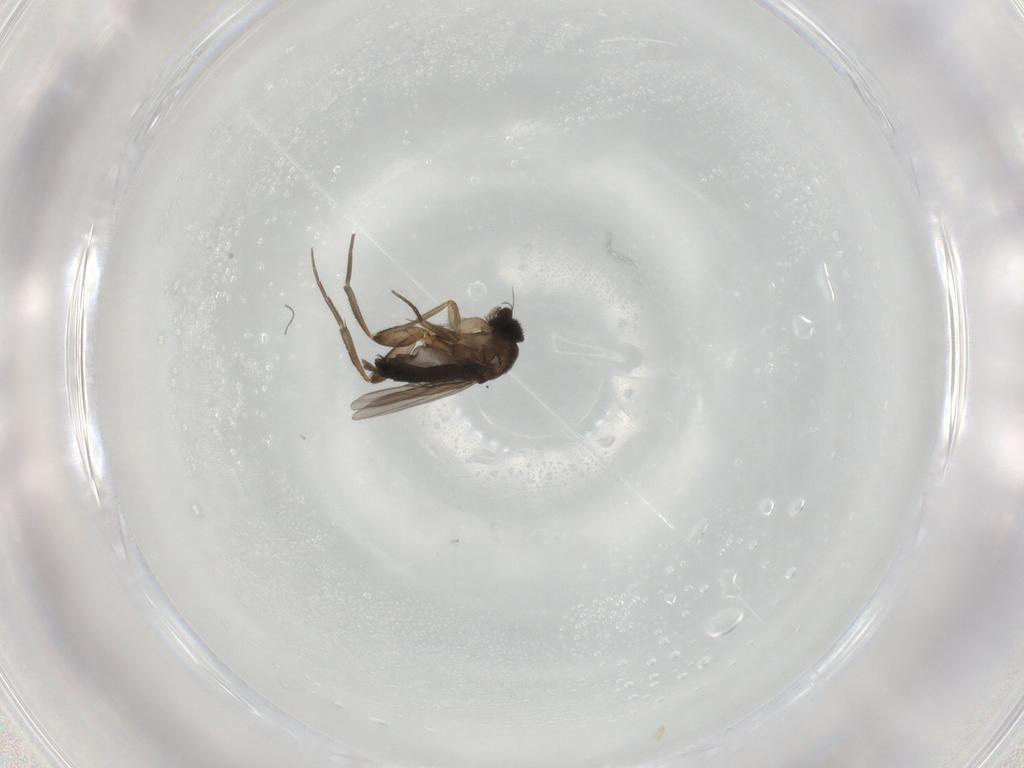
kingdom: Animalia
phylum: Arthropoda
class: Insecta
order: Diptera
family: Phoridae
